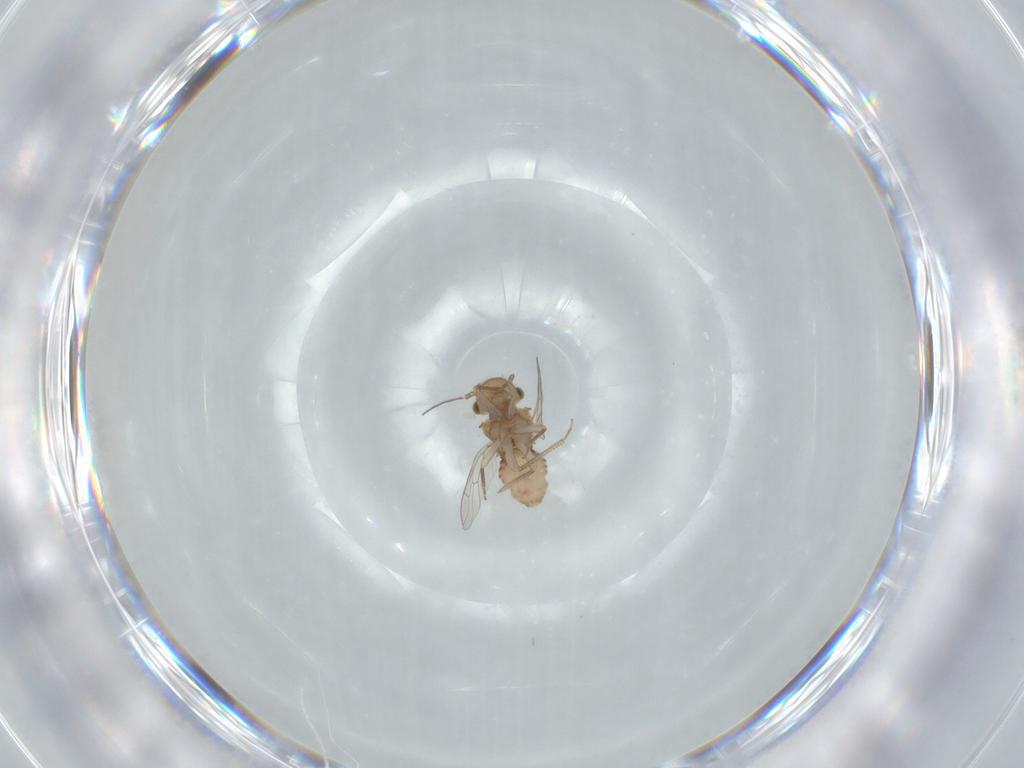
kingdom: Animalia
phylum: Arthropoda
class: Insecta
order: Psocodea
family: Ectopsocidae
